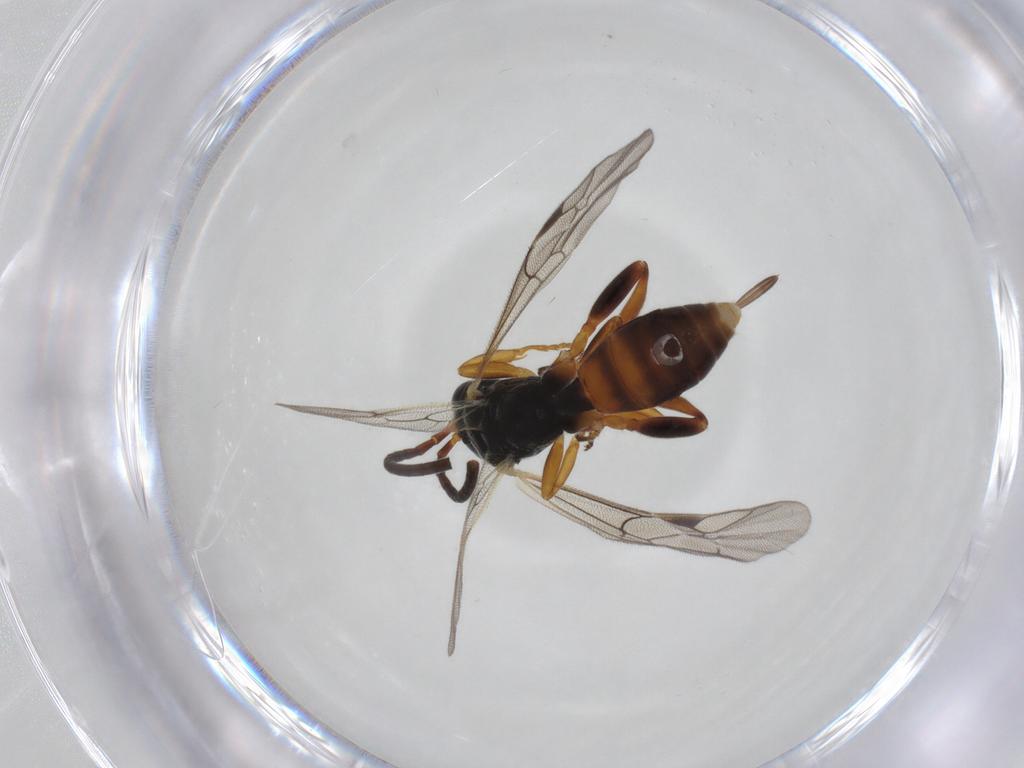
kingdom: Animalia
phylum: Arthropoda
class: Insecta
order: Hymenoptera
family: Ichneumonidae
